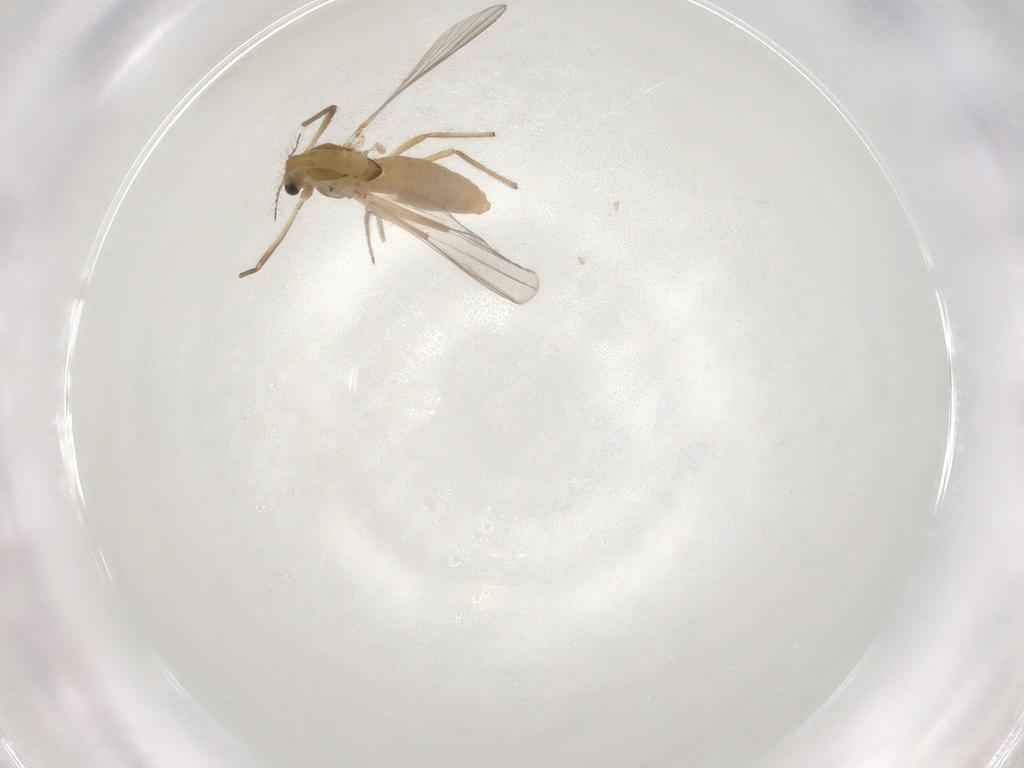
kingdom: Animalia
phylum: Arthropoda
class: Insecta
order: Diptera
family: Chironomidae
